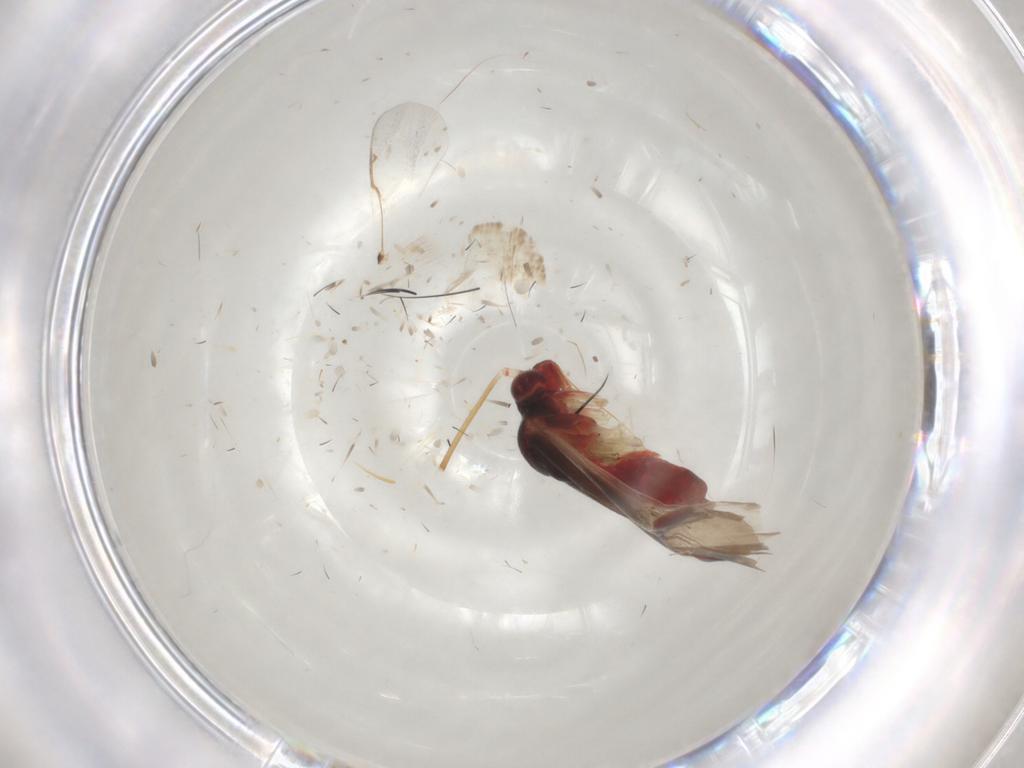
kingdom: Animalia
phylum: Arthropoda
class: Insecta
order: Hemiptera
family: Miridae
